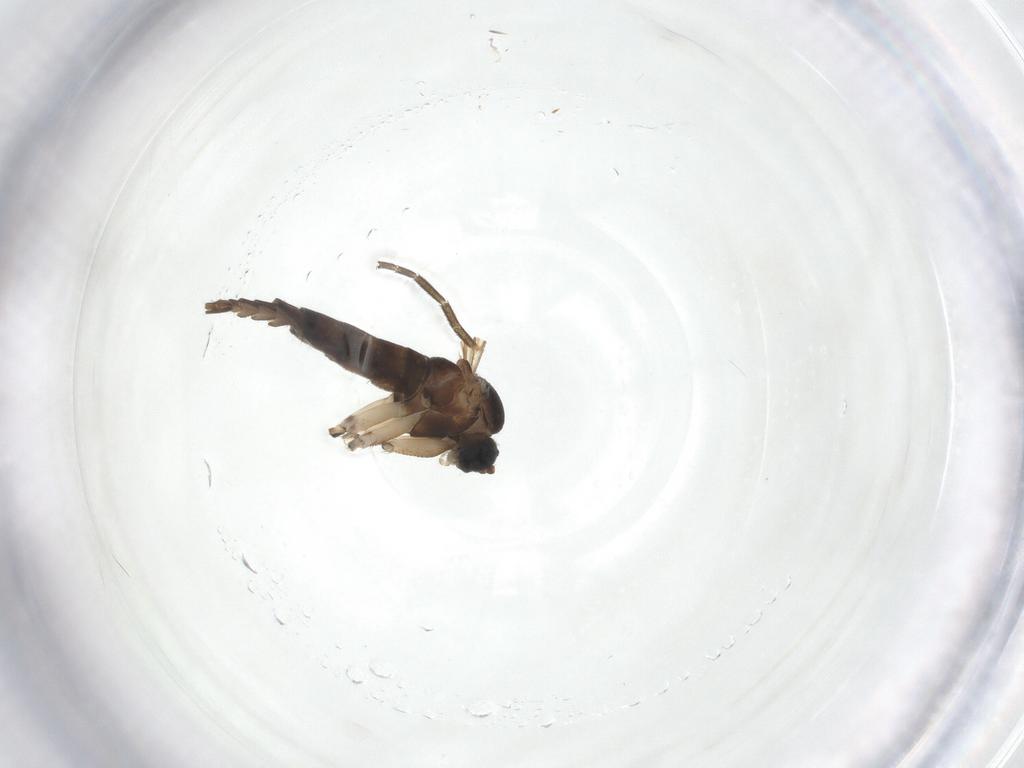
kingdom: Animalia
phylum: Arthropoda
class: Insecta
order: Diptera
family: Sciaridae
